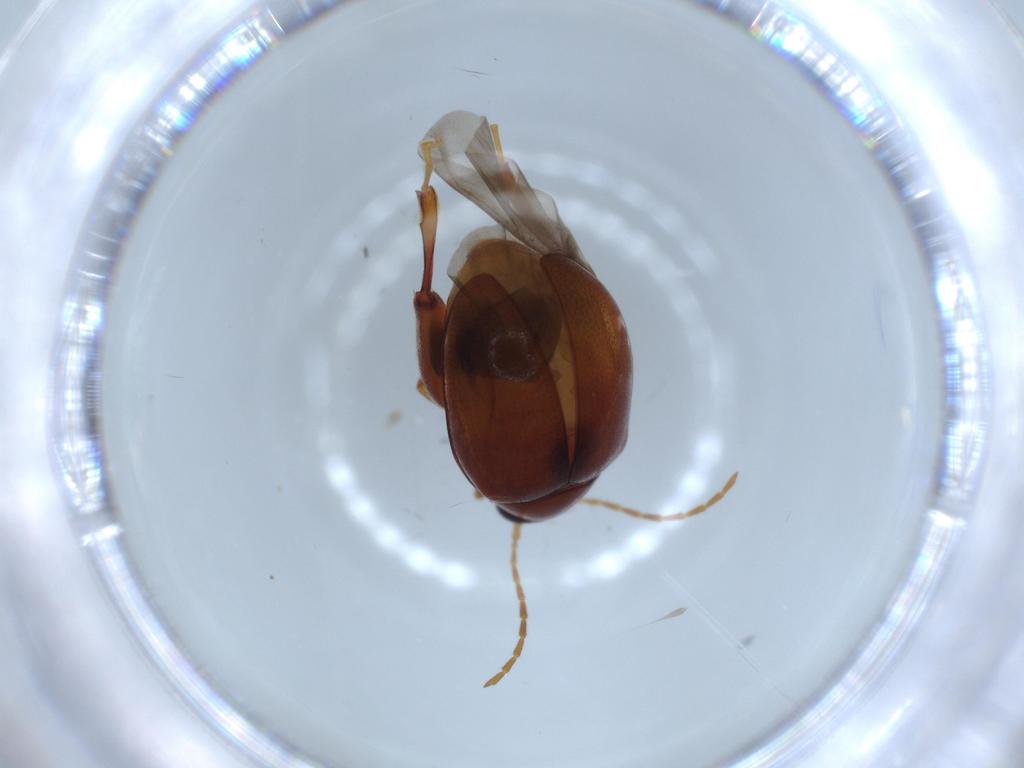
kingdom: Animalia
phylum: Arthropoda
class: Insecta
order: Coleoptera
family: Chrysomelidae
